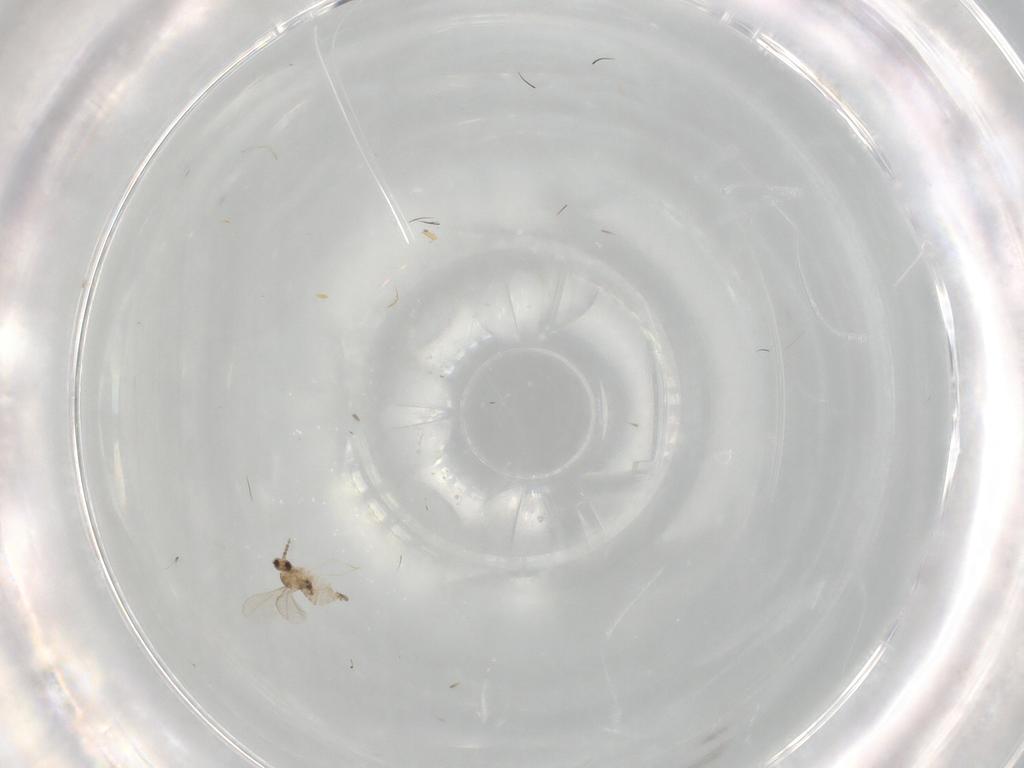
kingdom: Animalia
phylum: Arthropoda
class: Insecta
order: Diptera
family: Cecidomyiidae
